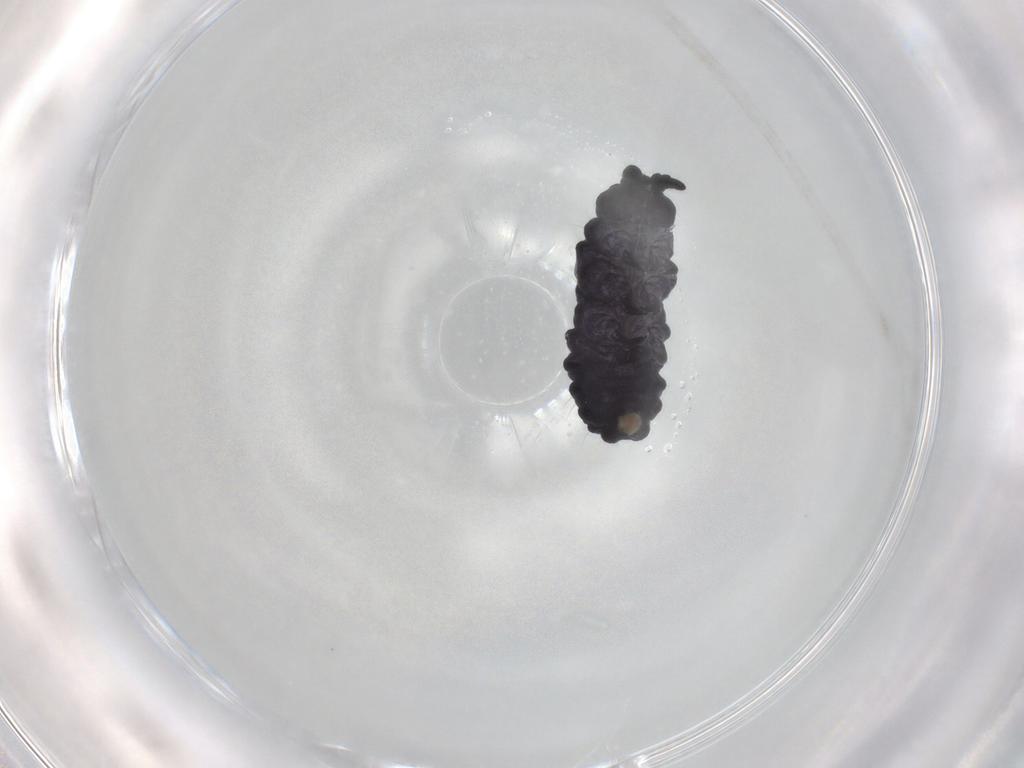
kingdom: Animalia
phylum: Arthropoda
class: Collembola
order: Poduromorpha
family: Neanuridae
